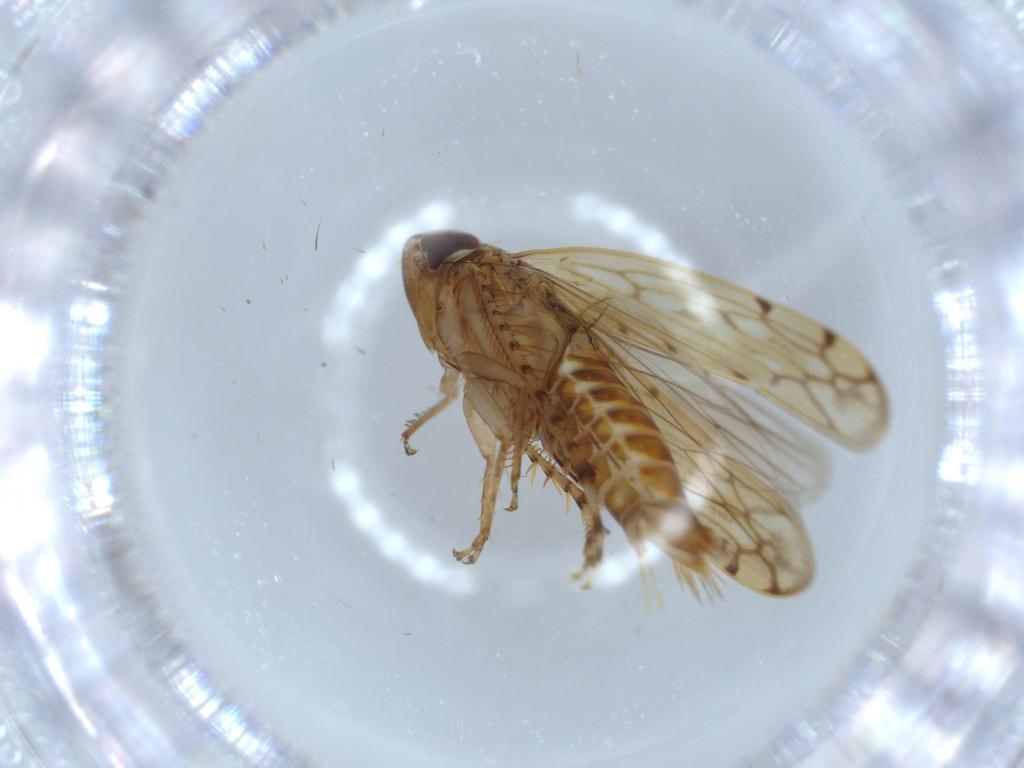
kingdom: Animalia
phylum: Arthropoda
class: Insecta
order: Hemiptera
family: Cicadellidae
